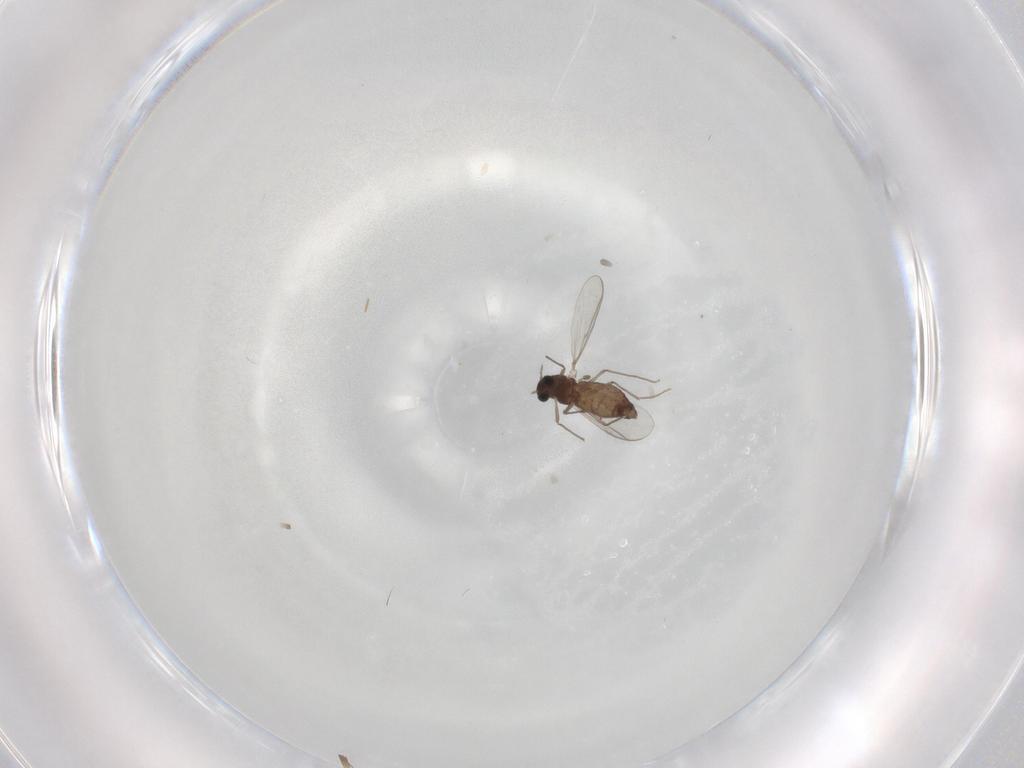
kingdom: Animalia
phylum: Arthropoda
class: Insecta
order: Diptera
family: Chironomidae
